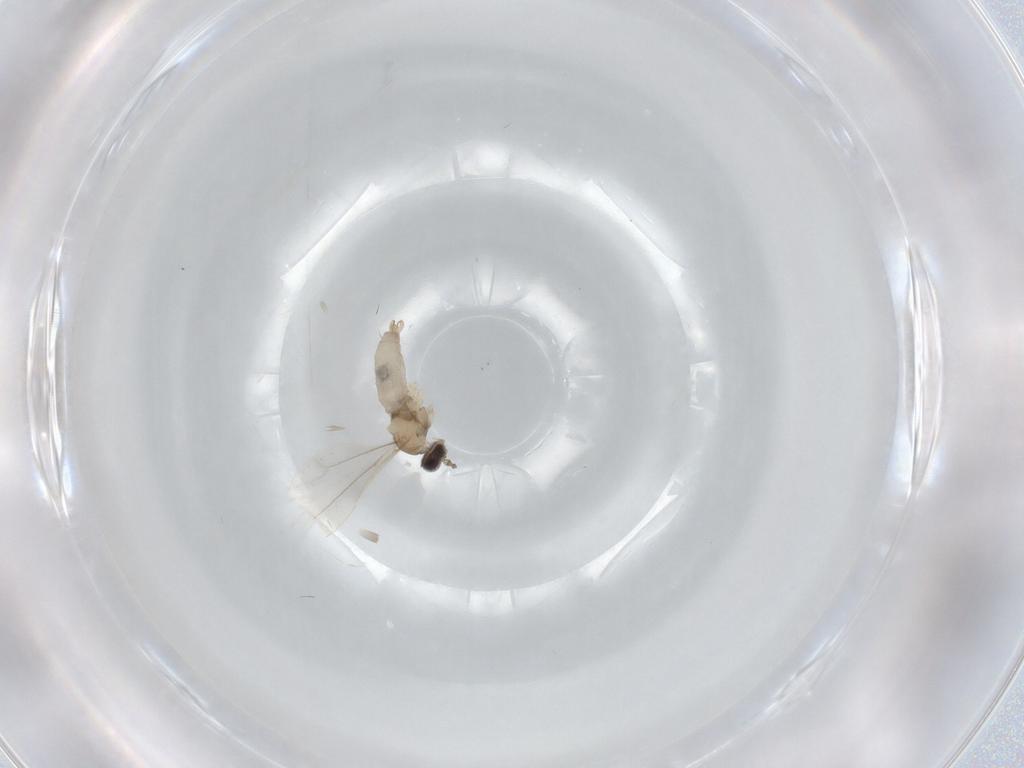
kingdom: Animalia
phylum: Arthropoda
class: Insecta
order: Diptera
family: Cecidomyiidae
